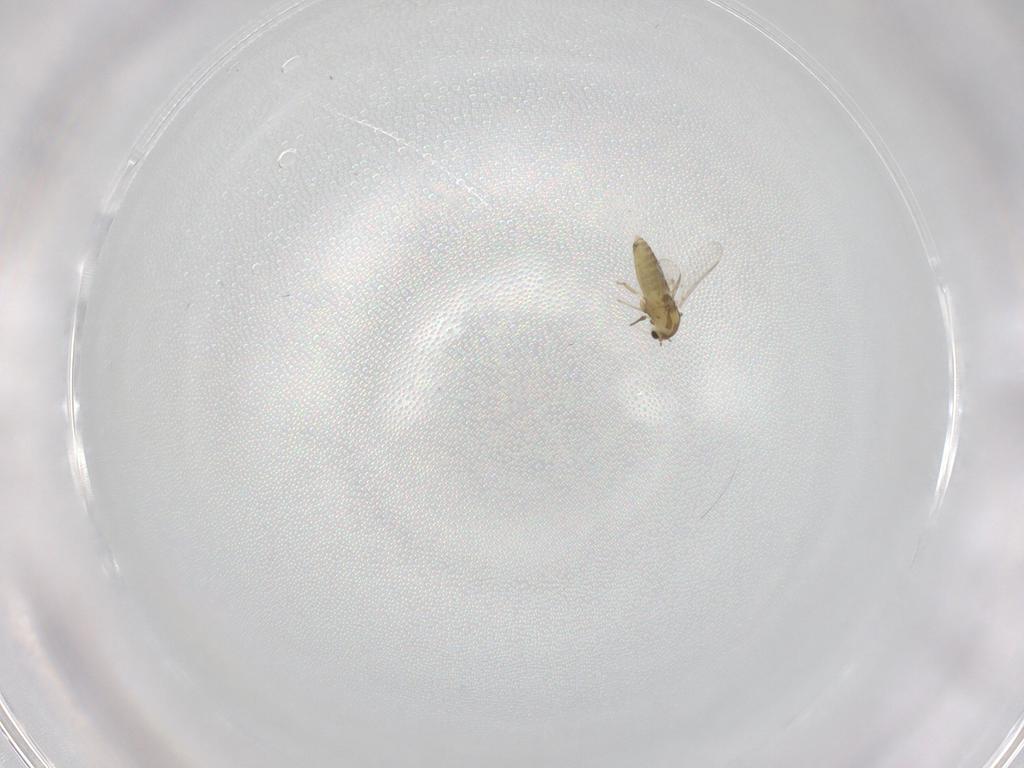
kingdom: Animalia
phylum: Arthropoda
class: Insecta
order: Diptera
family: Chironomidae
